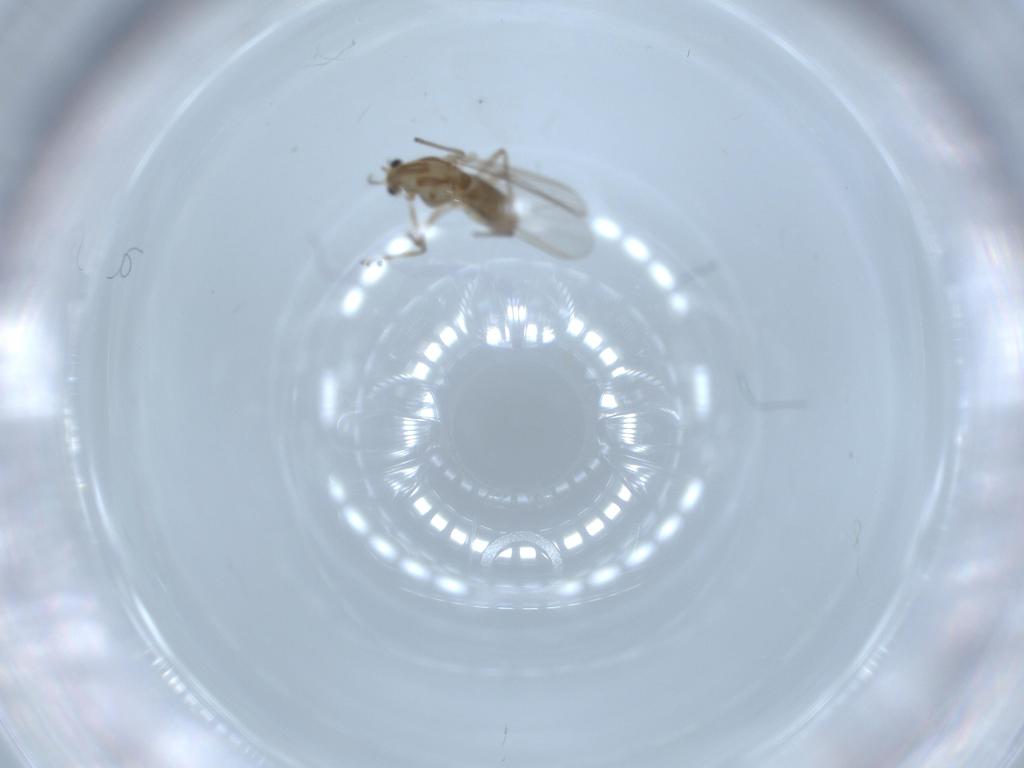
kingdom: Animalia
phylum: Arthropoda
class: Insecta
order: Diptera
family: Chironomidae
